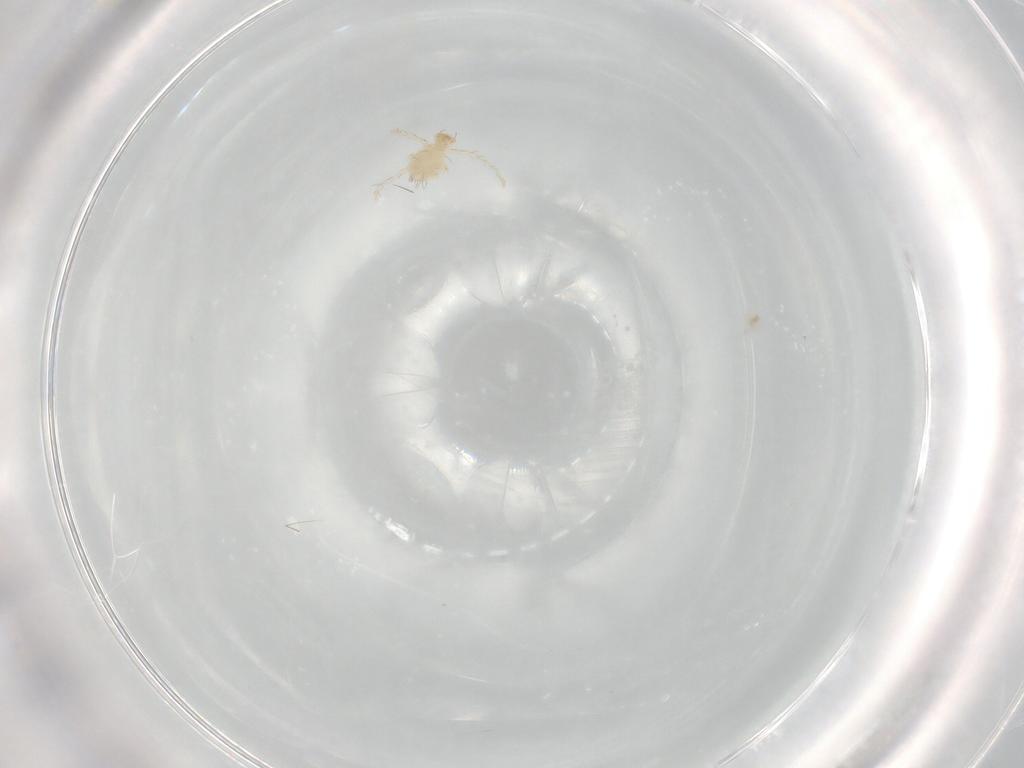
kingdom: Animalia
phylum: Arthropoda
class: Arachnida
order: Trombidiformes
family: Erythraeidae
